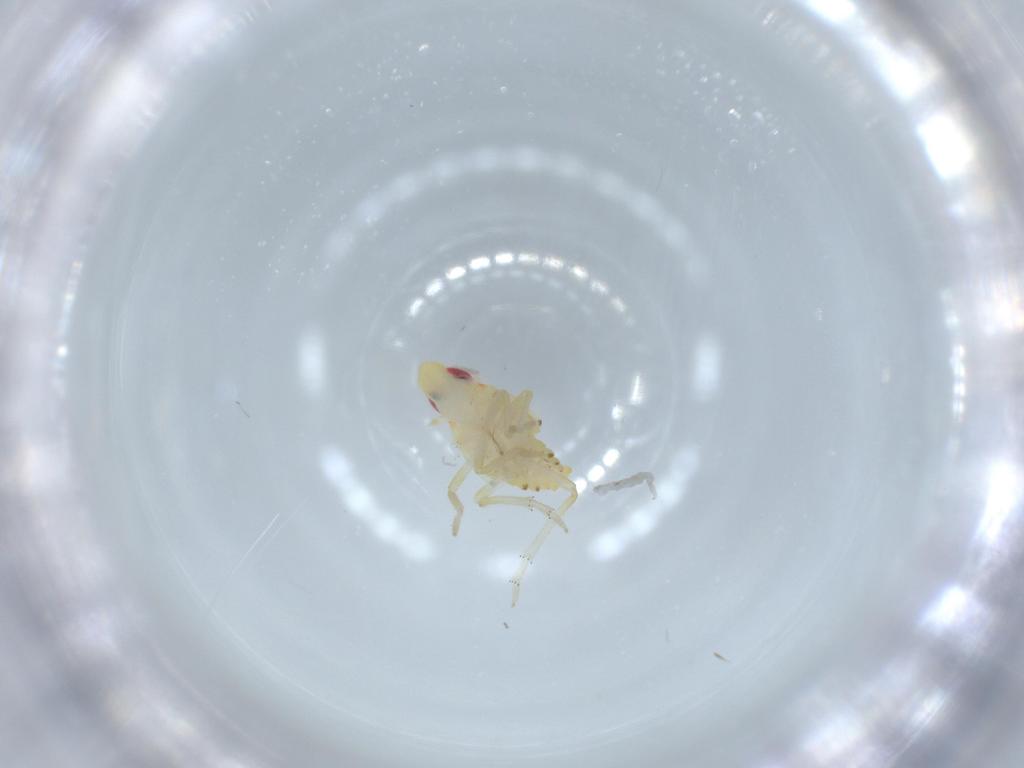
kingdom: Animalia
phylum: Arthropoda
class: Insecta
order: Hemiptera
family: Tropiduchidae
